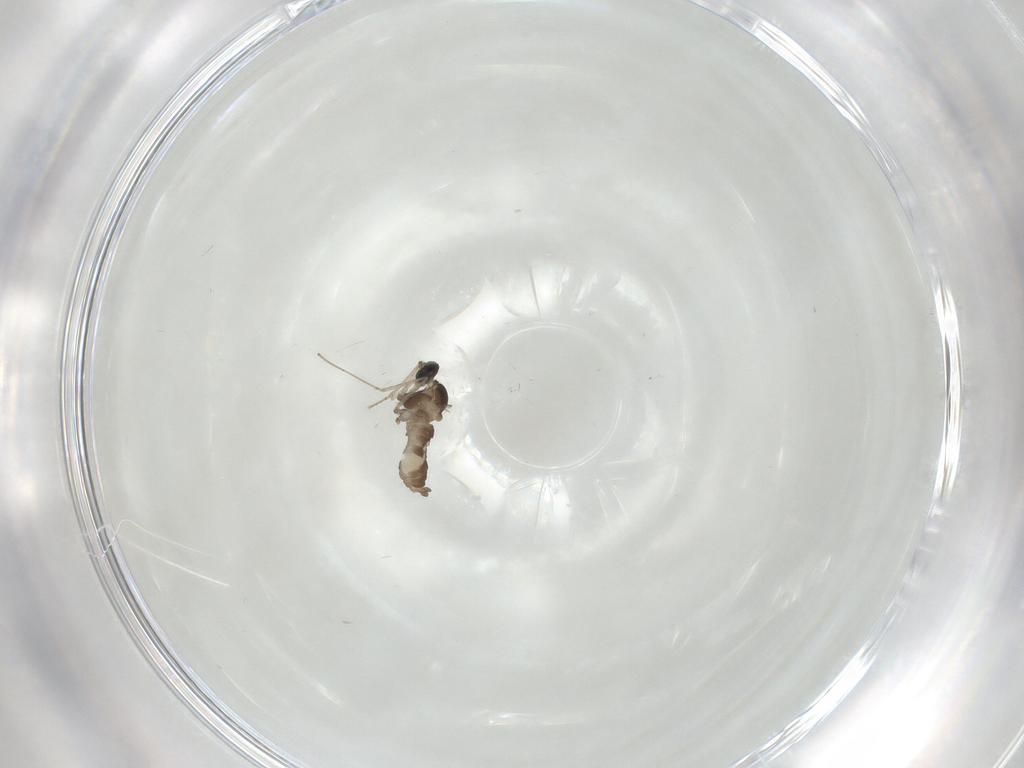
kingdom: Animalia
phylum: Arthropoda
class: Insecta
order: Diptera
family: Cecidomyiidae
